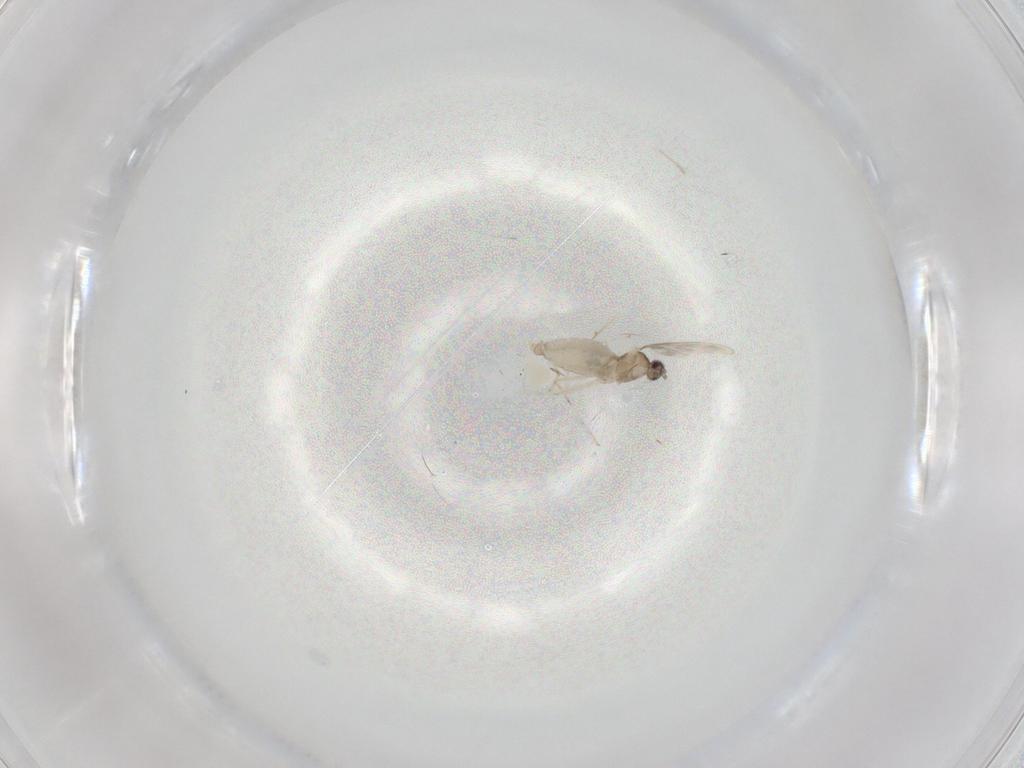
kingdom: Animalia
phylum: Arthropoda
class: Insecta
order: Diptera
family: Cecidomyiidae
